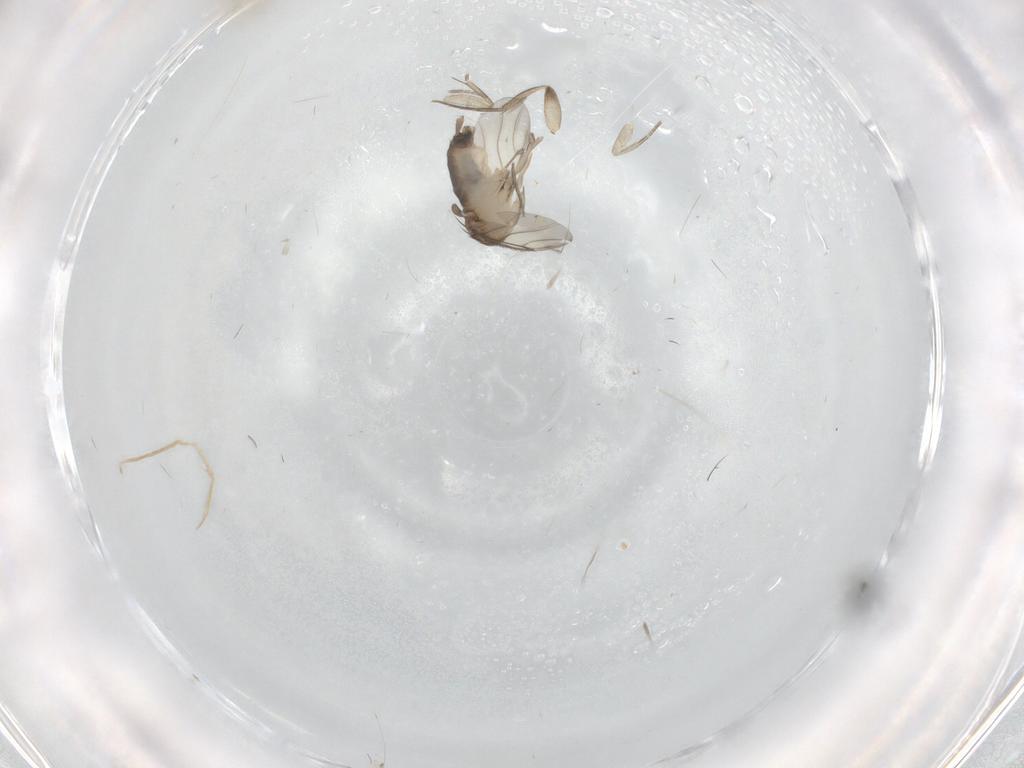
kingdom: Animalia
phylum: Arthropoda
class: Insecta
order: Diptera
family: Phoridae
